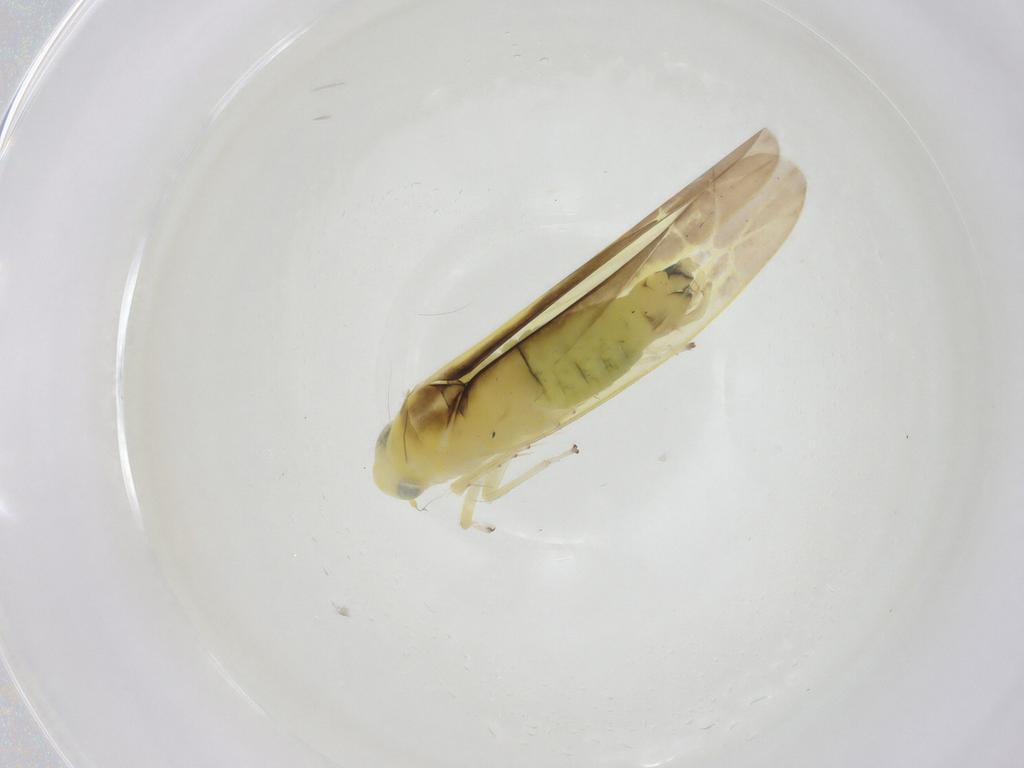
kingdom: Animalia
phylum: Arthropoda
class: Insecta
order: Hemiptera
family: Cicadellidae
